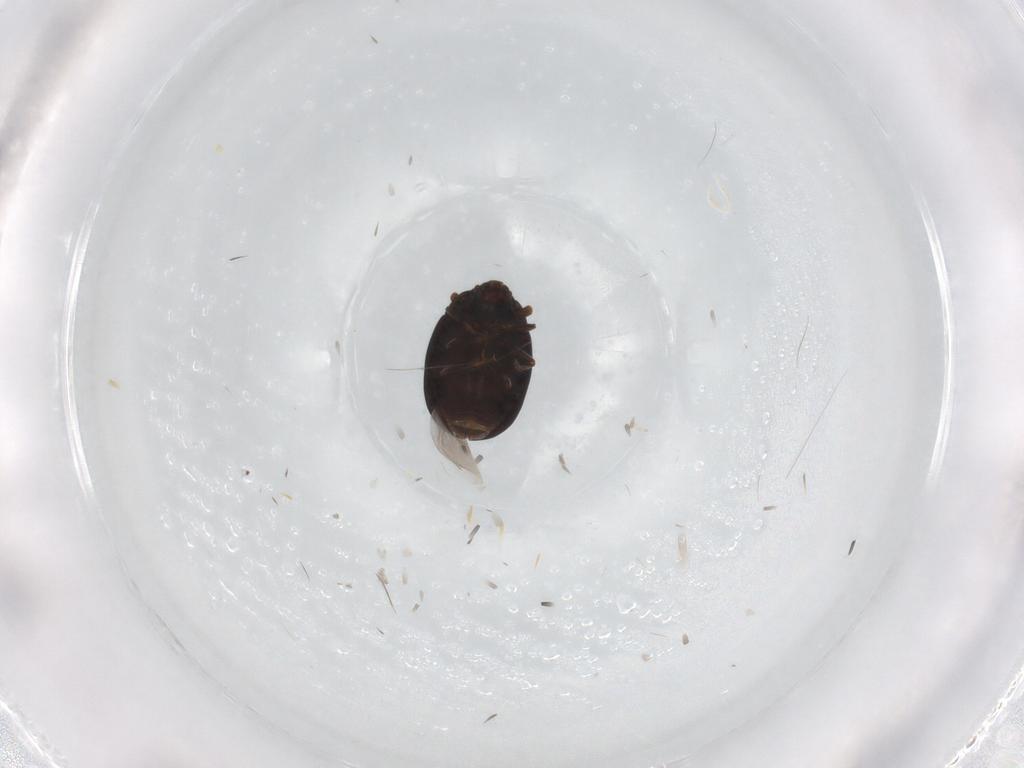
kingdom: Animalia
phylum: Arthropoda
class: Insecta
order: Coleoptera
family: Discolomatidae
